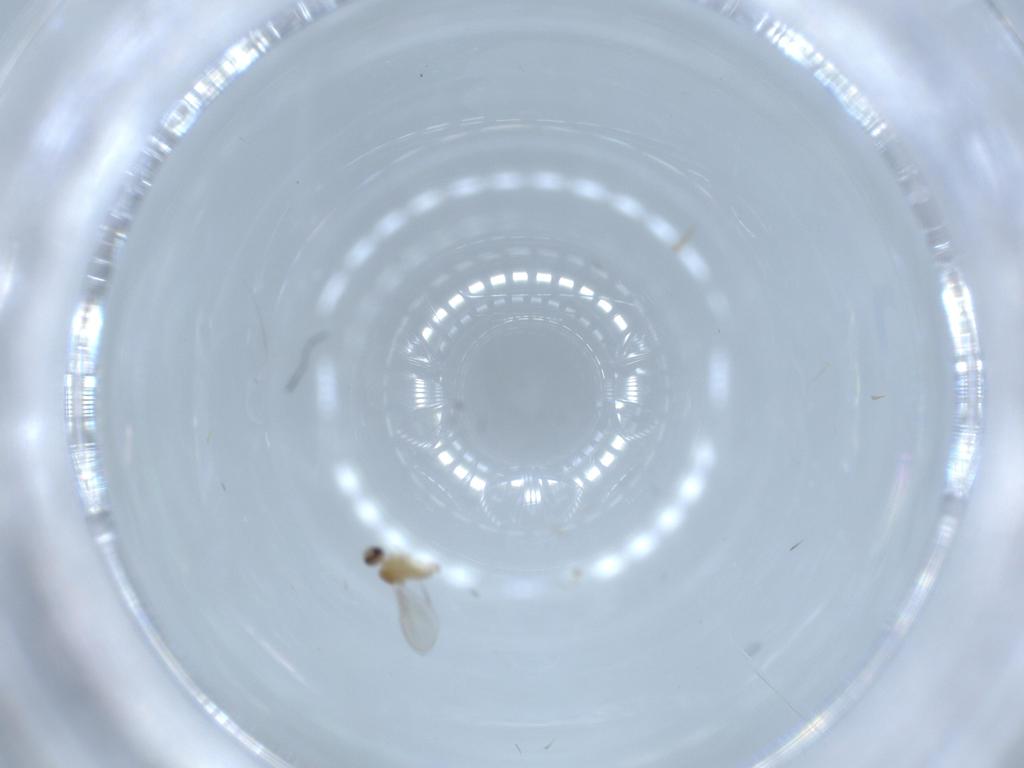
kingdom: Animalia
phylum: Arthropoda
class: Insecta
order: Diptera
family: Cecidomyiidae
